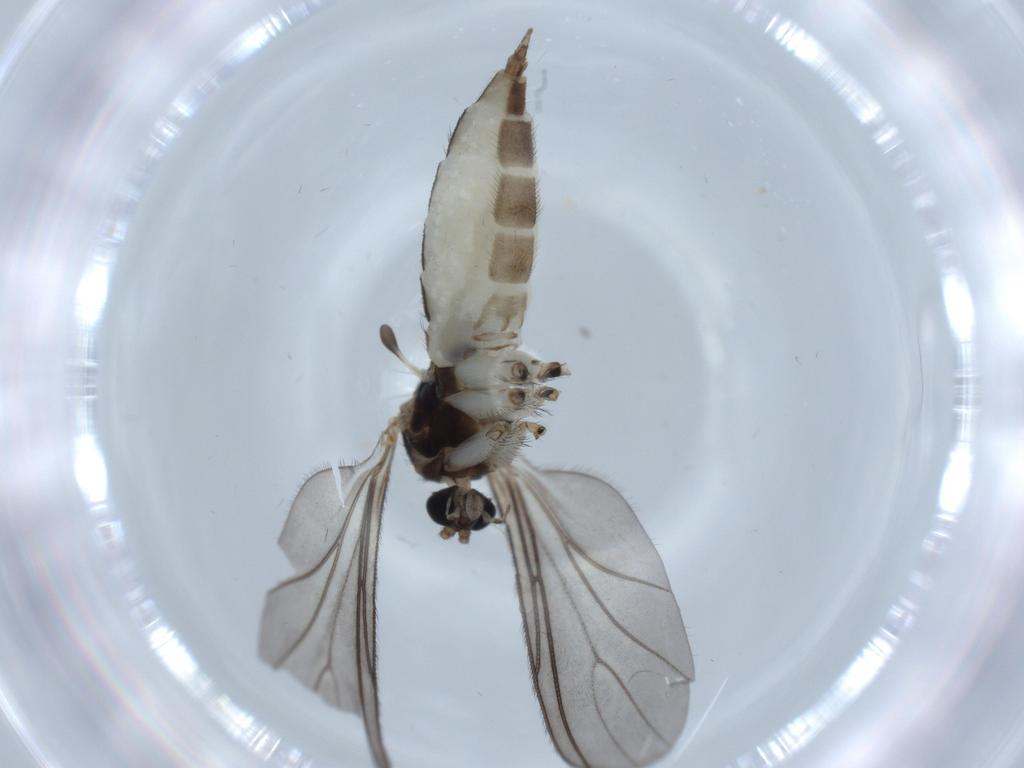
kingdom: Animalia
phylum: Arthropoda
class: Insecta
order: Diptera
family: Sciaridae
